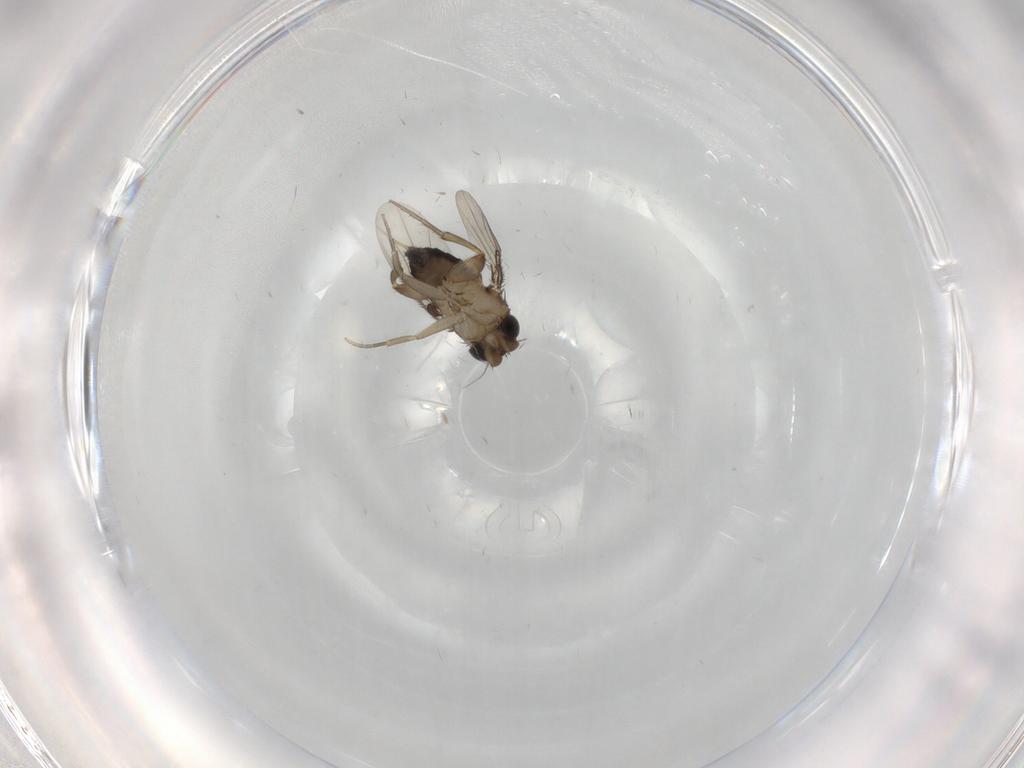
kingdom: Animalia
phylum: Arthropoda
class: Insecta
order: Diptera
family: Phoridae
